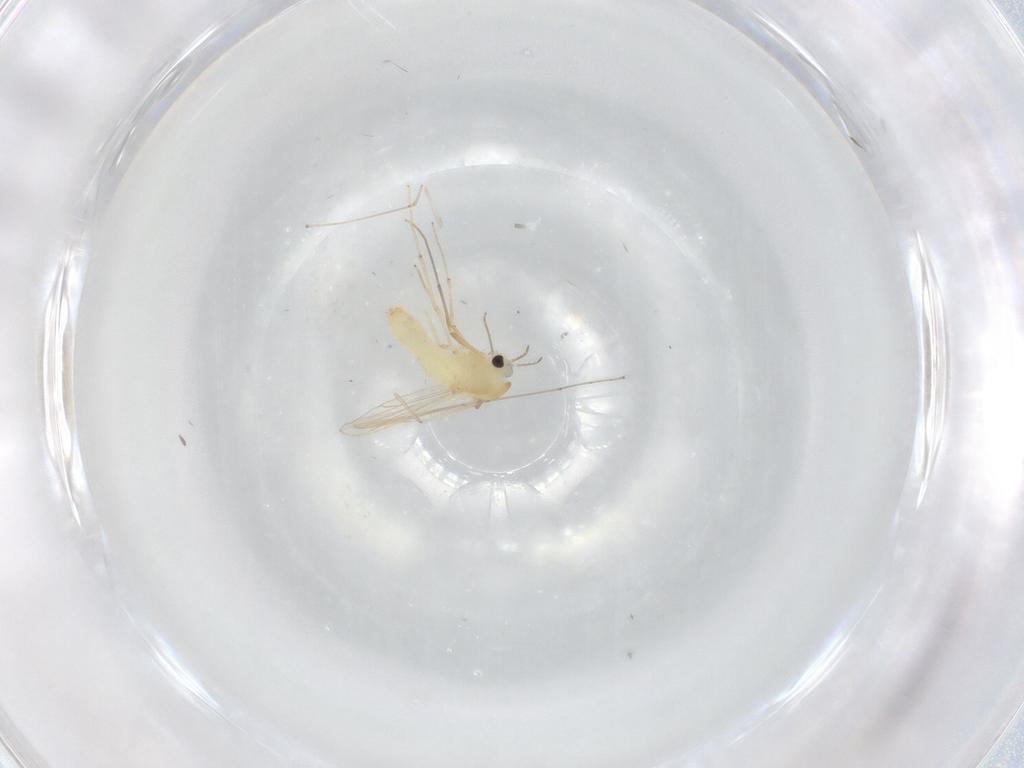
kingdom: Animalia
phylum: Arthropoda
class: Insecta
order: Diptera
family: Chironomidae
